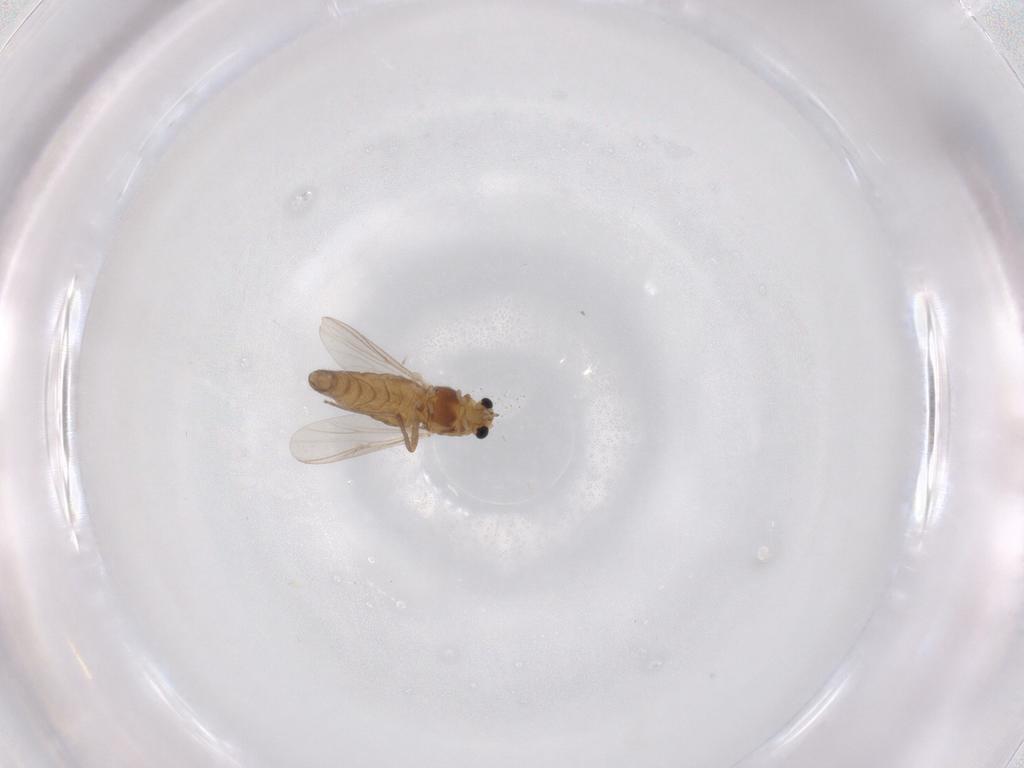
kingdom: Animalia
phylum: Arthropoda
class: Insecta
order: Diptera
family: Chironomidae
